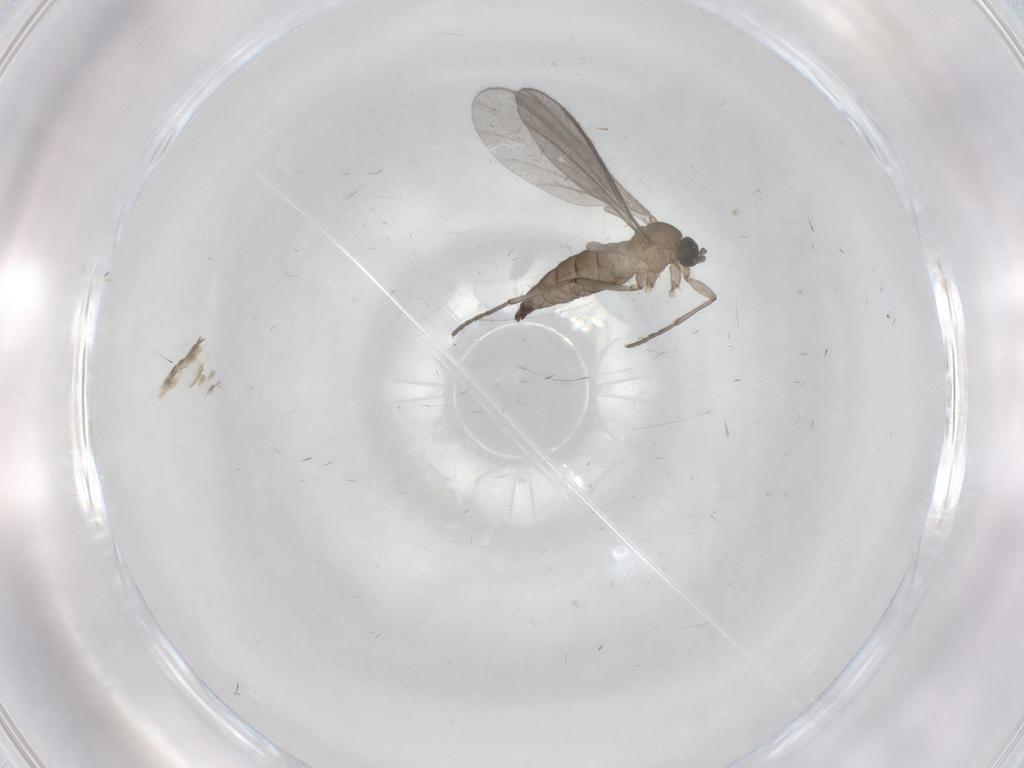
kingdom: Animalia
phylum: Arthropoda
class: Insecta
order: Diptera
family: Sciaridae
